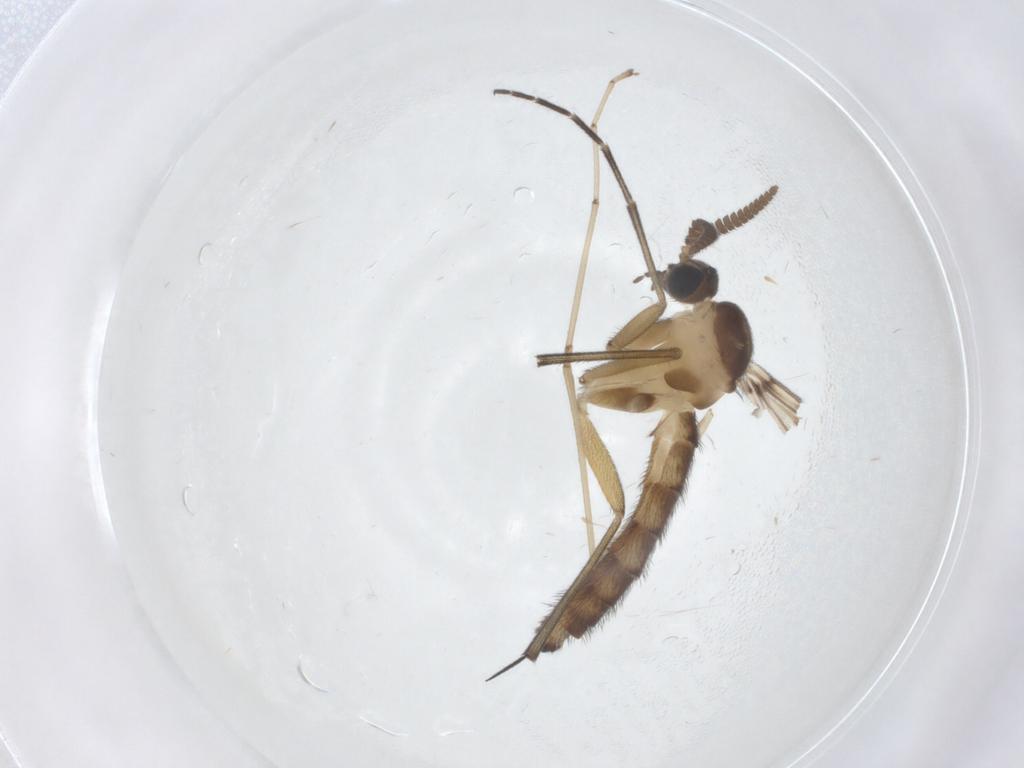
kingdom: Animalia
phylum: Arthropoda
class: Insecta
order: Diptera
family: Keroplatidae
